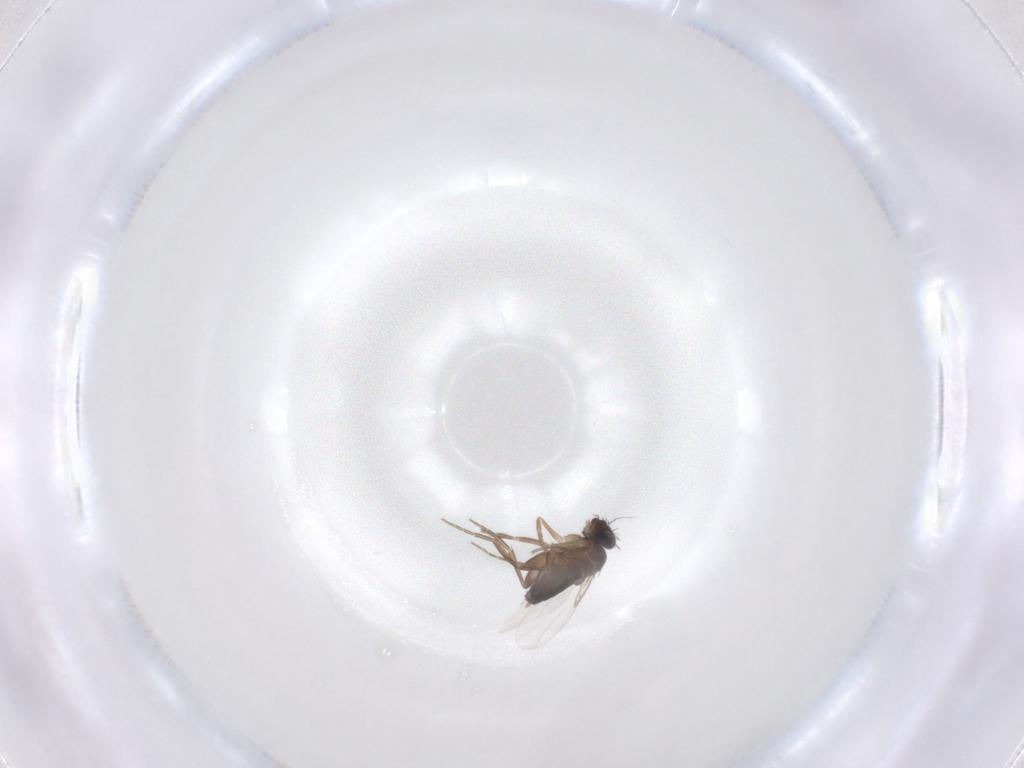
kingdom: Animalia
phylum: Arthropoda
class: Insecta
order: Diptera
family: Phoridae
